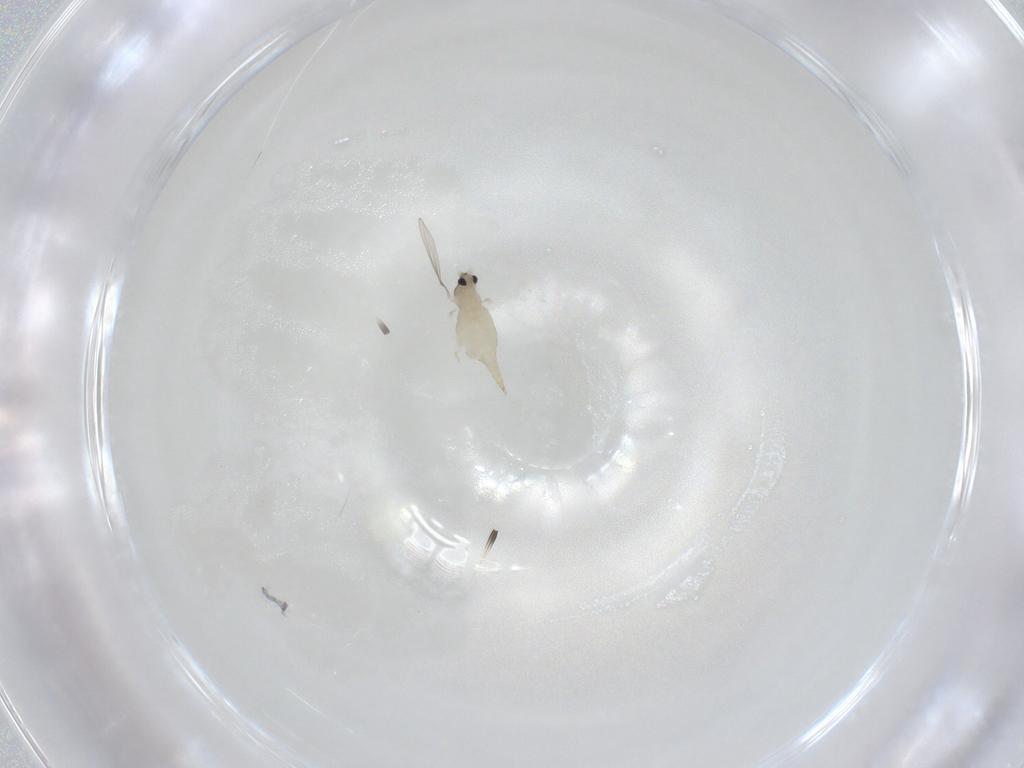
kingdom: Animalia
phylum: Arthropoda
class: Insecta
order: Diptera
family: Cecidomyiidae
